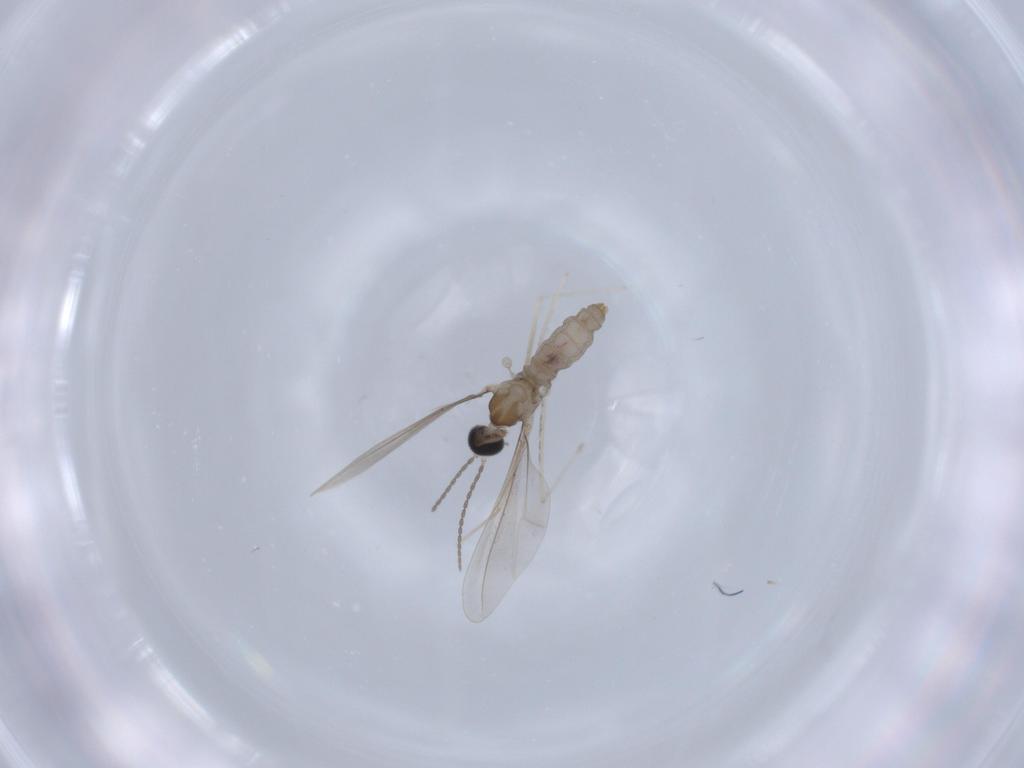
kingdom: Animalia
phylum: Arthropoda
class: Insecta
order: Diptera
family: Cecidomyiidae
